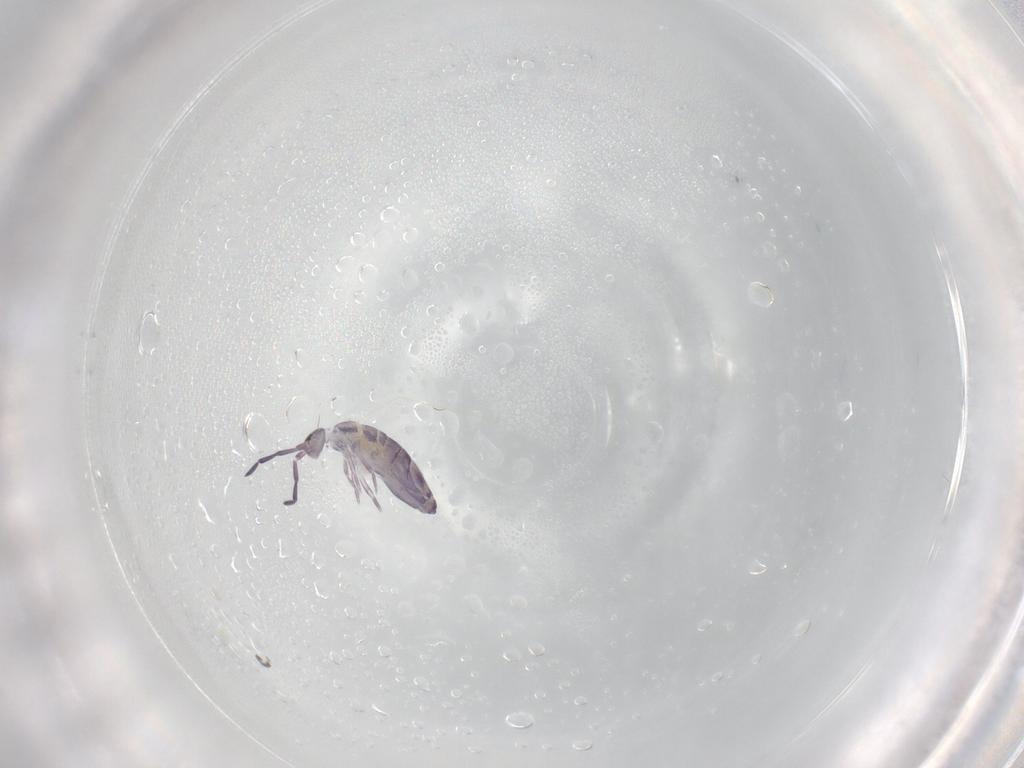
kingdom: Animalia
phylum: Arthropoda
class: Collembola
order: Entomobryomorpha
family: Entomobryidae
